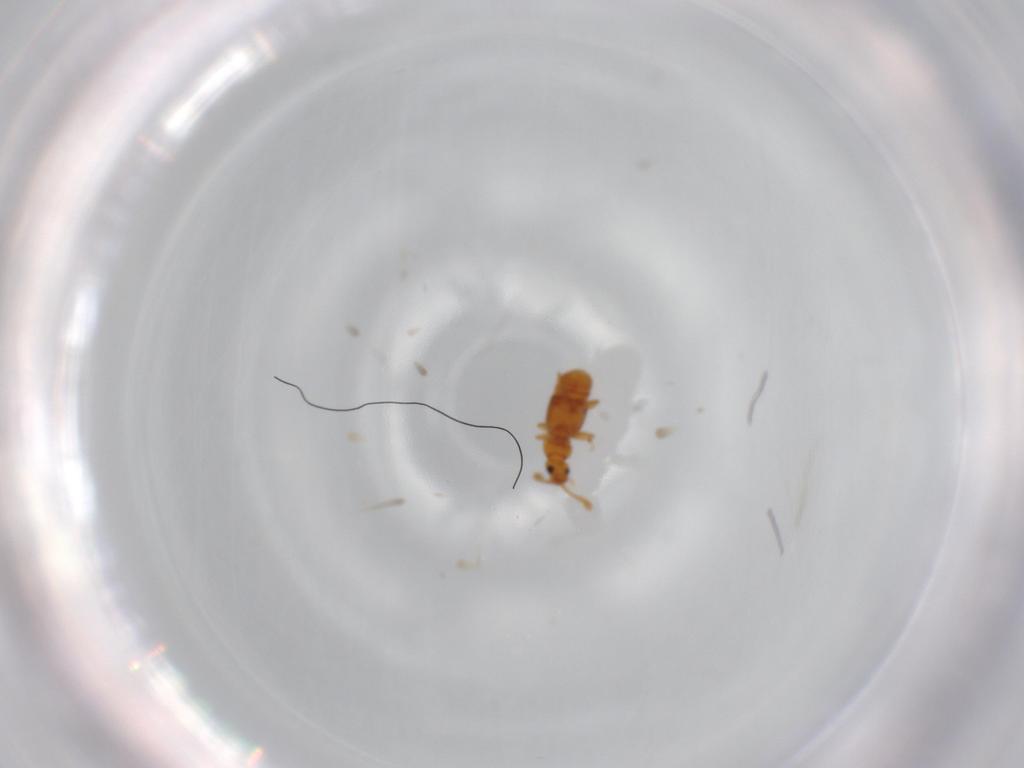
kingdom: Animalia
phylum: Arthropoda
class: Insecta
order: Coleoptera
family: Staphylinidae
